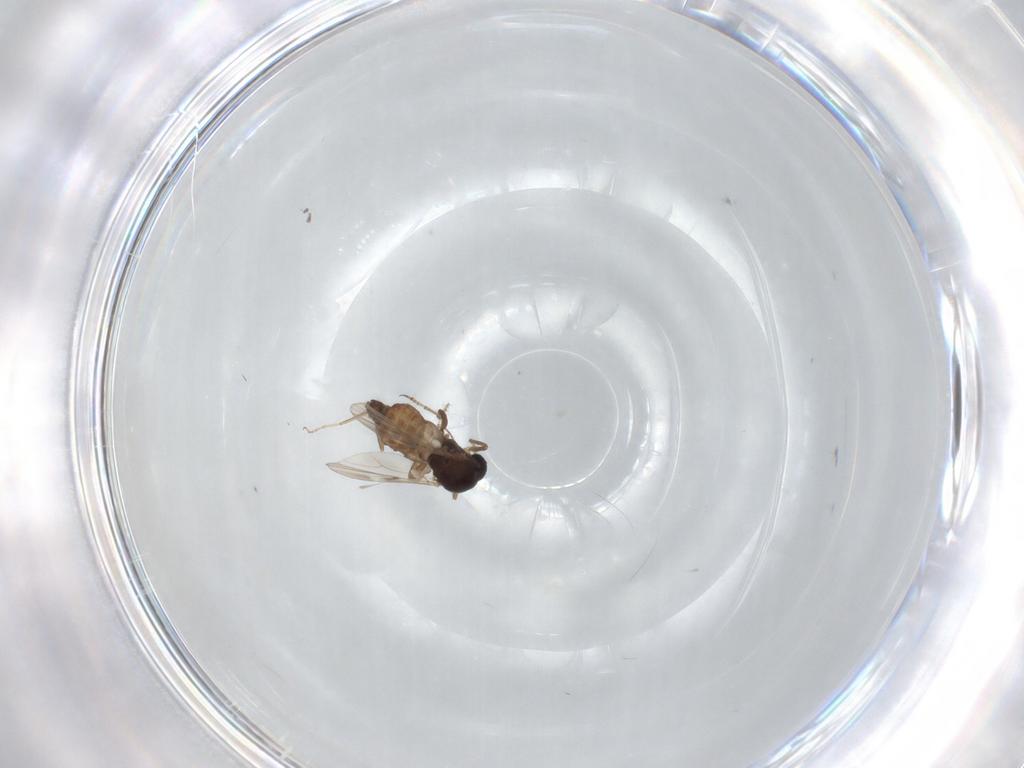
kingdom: Animalia
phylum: Arthropoda
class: Insecta
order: Diptera
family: Ceratopogonidae
